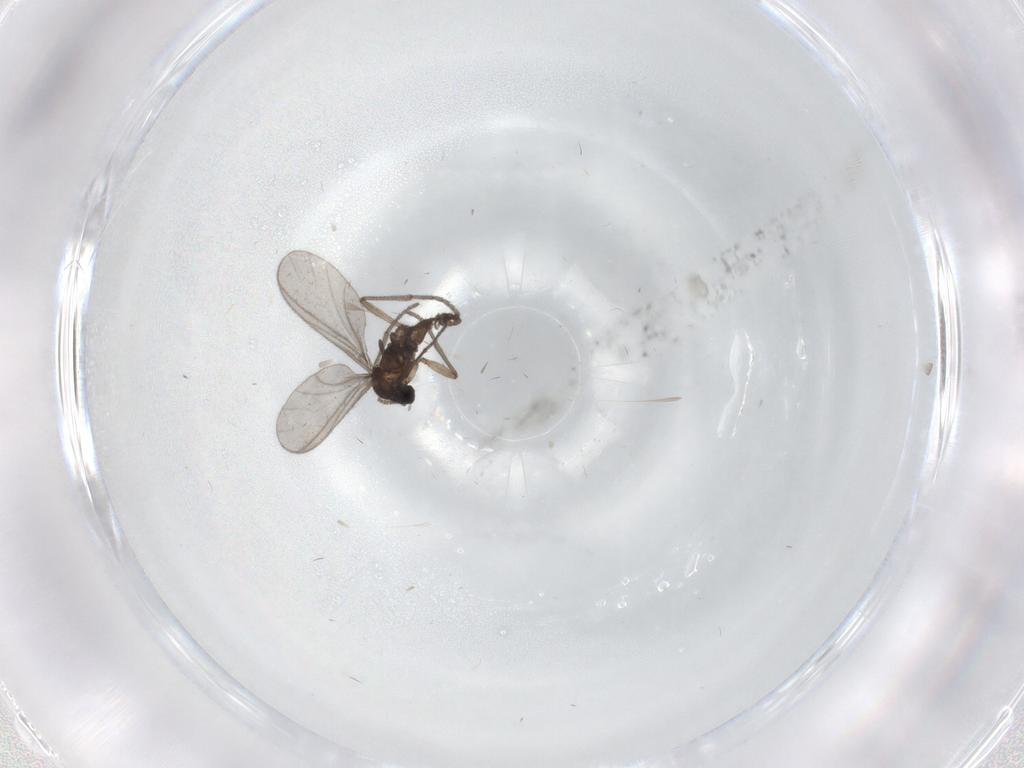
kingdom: Animalia
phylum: Arthropoda
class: Insecta
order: Diptera
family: Ceratopogonidae
